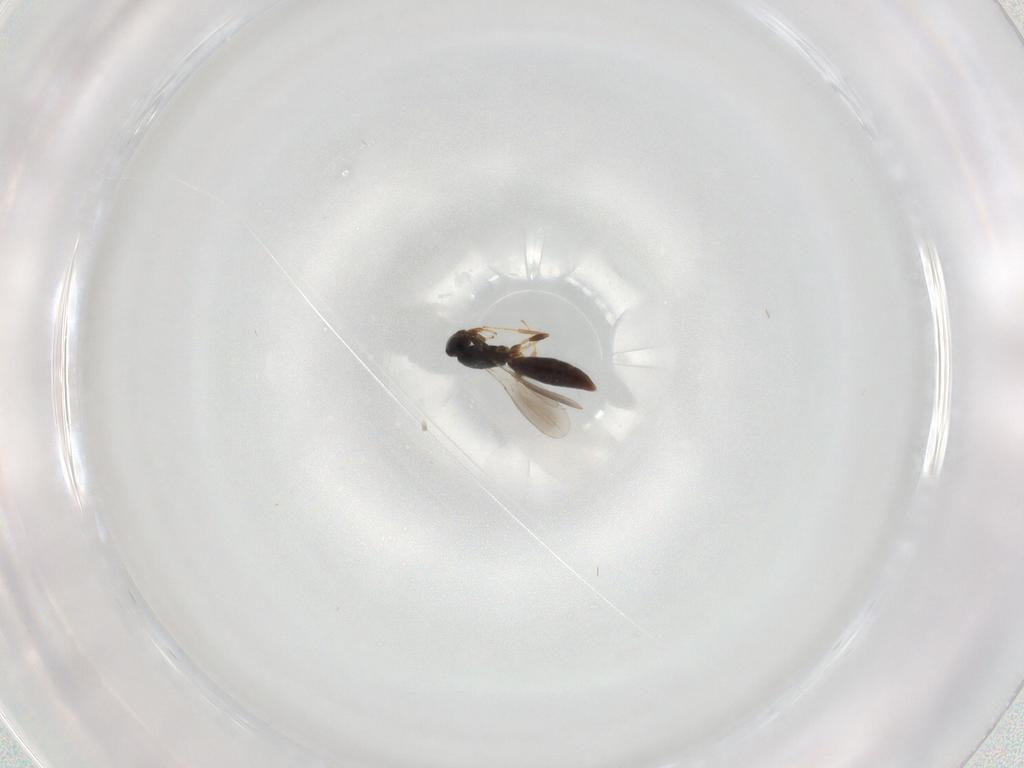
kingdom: Animalia
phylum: Arthropoda
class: Insecta
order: Hymenoptera
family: Platygastridae
